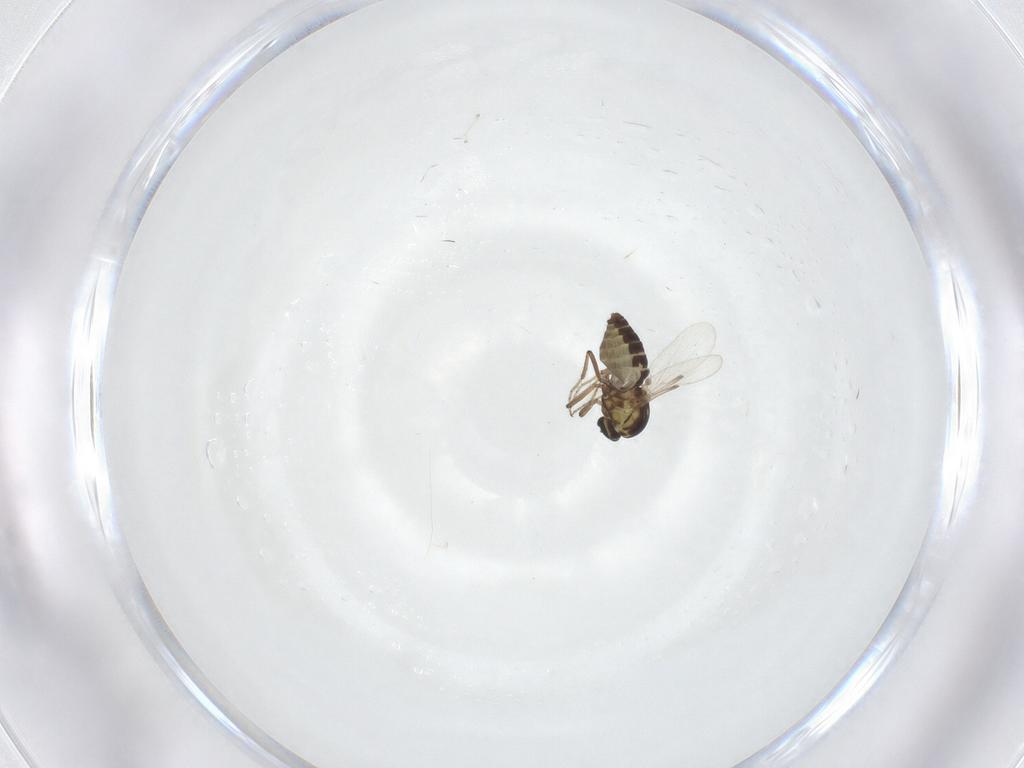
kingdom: Animalia
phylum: Arthropoda
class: Insecta
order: Diptera
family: Ceratopogonidae
